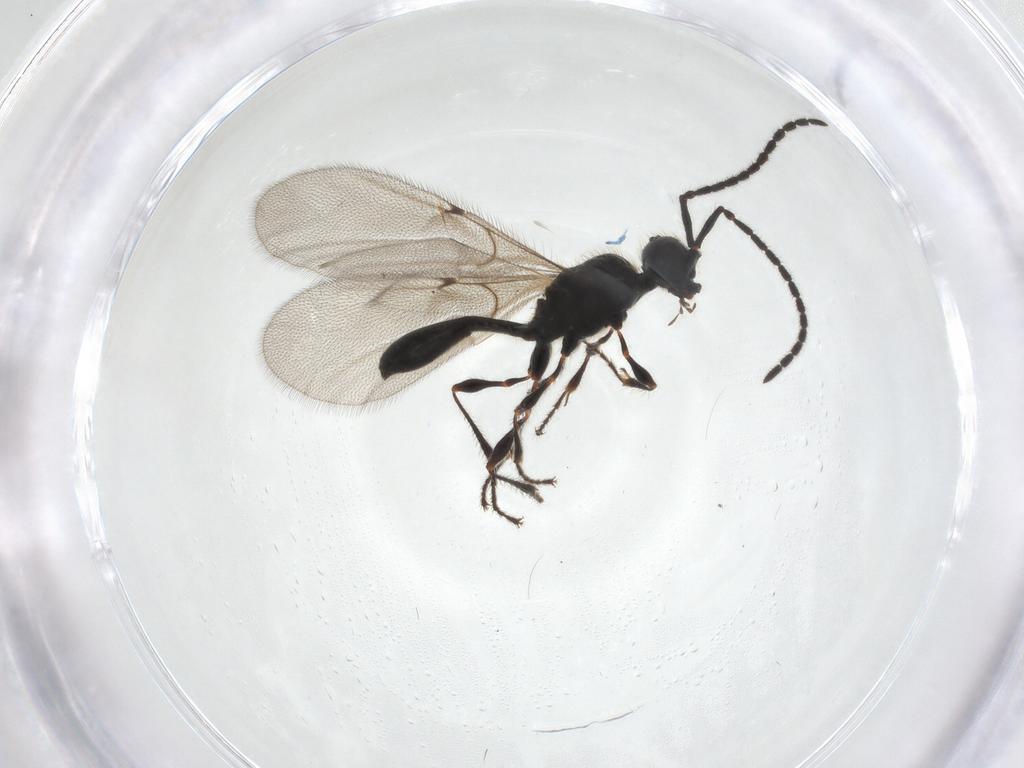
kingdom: Animalia
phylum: Arthropoda
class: Insecta
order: Hymenoptera
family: Diapriidae
